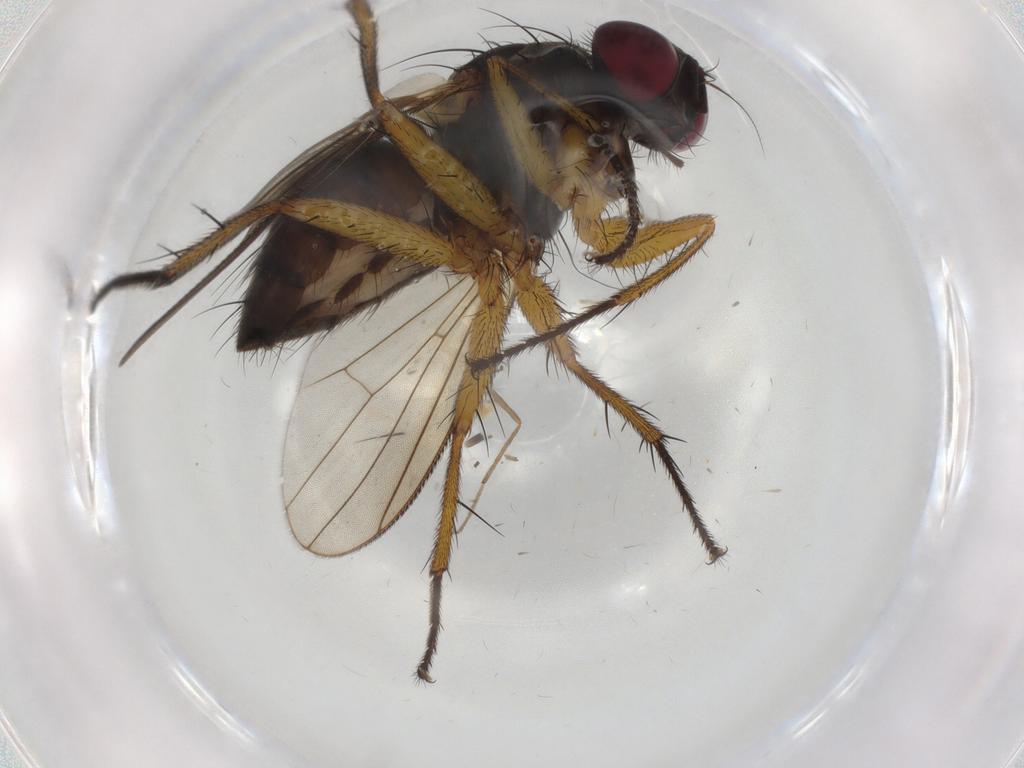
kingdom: Animalia
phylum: Arthropoda
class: Insecta
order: Diptera
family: Muscidae
